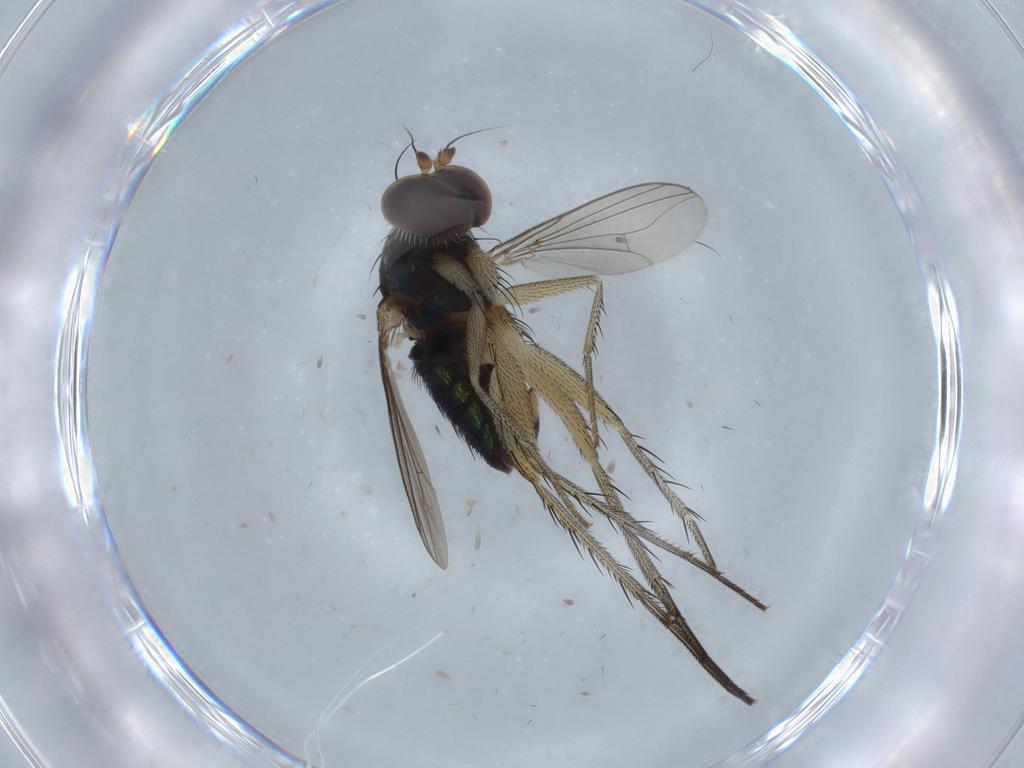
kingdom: Animalia
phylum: Arthropoda
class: Insecta
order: Diptera
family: Dolichopodidae
